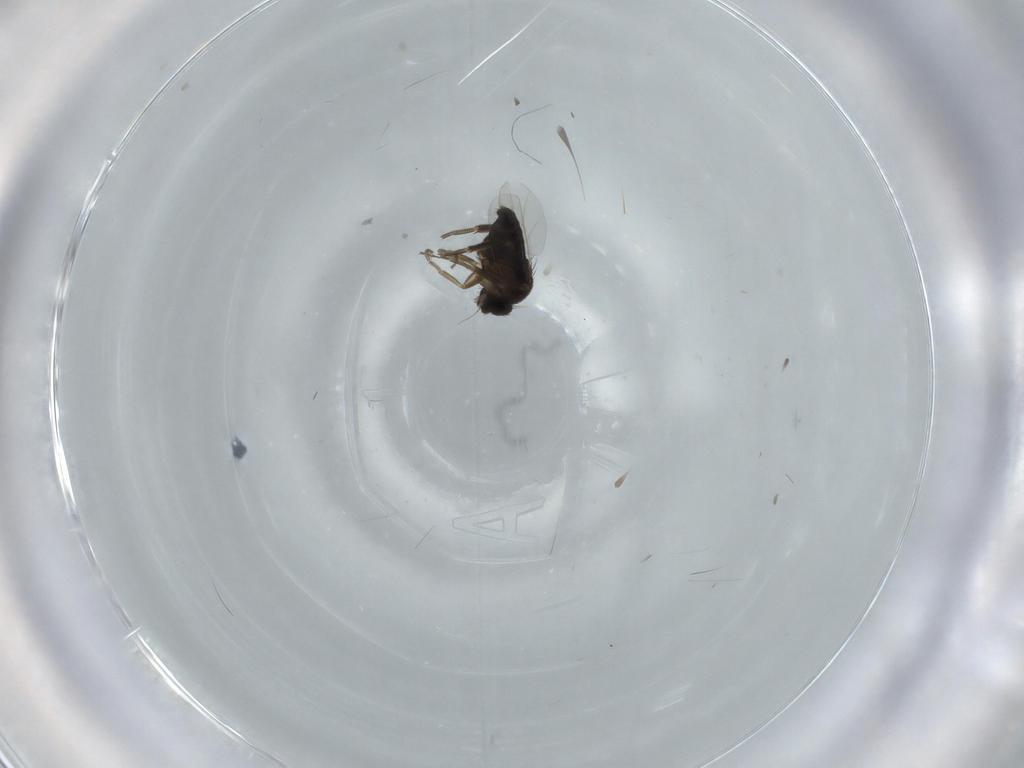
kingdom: Animalia
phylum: Arthropoda
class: Insecta
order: Diptera
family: Phoridae
